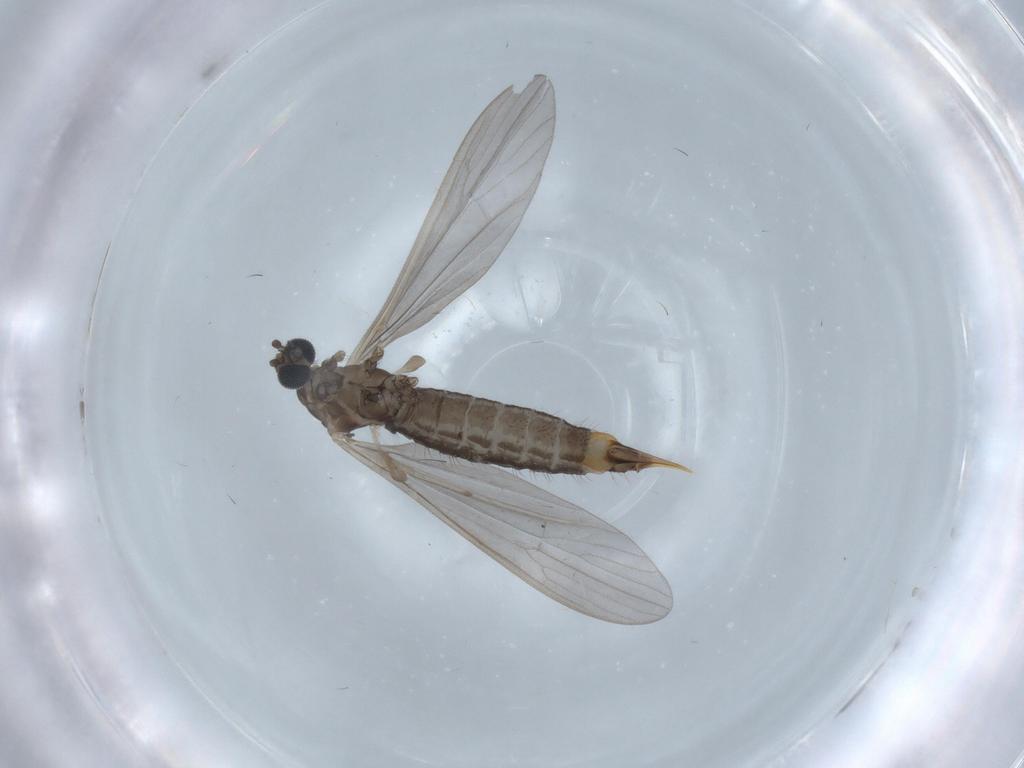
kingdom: Animalia
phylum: Arthropoda
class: Insecta
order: Diptera
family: Limoniidae
